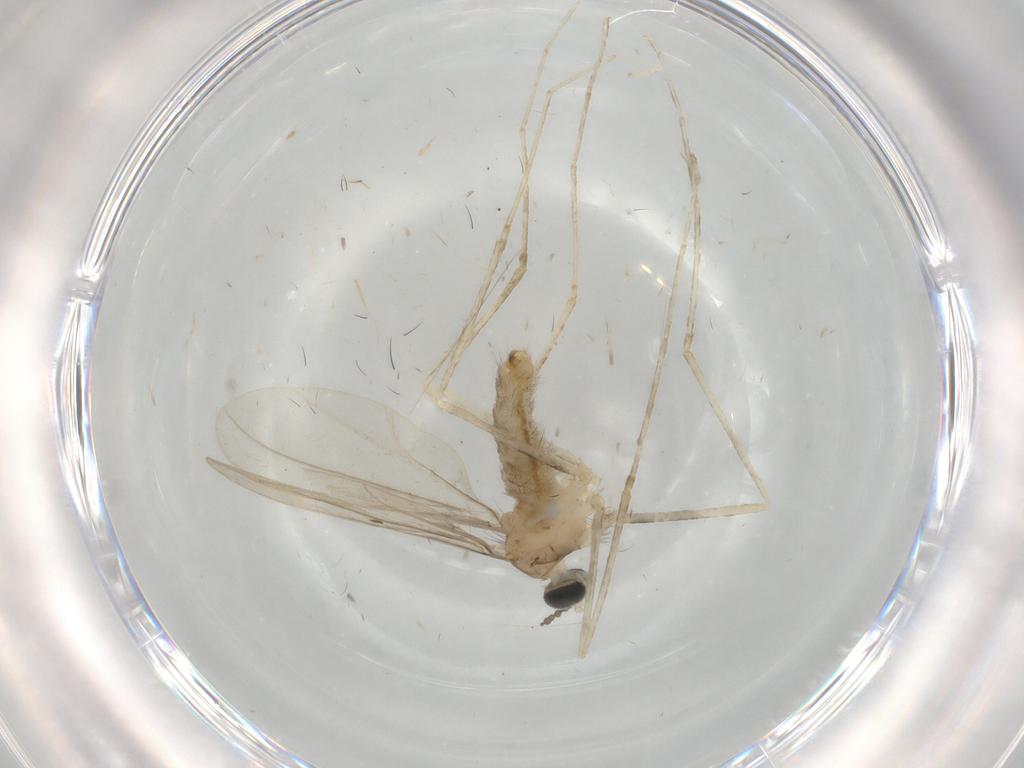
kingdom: Animalia
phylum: Arthropoda
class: Insecta
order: Diptera
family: Cecidomyiidae
